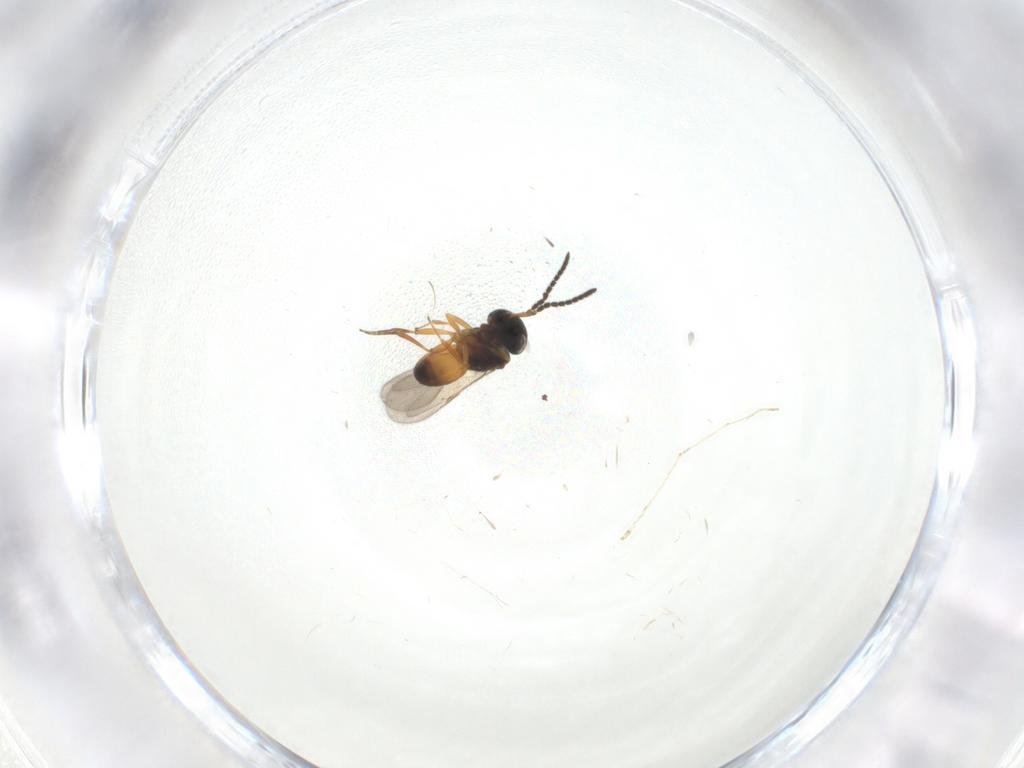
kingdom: Animalia
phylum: Arthropoda
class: Insecta
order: Hymenoptera
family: Scelionidae
